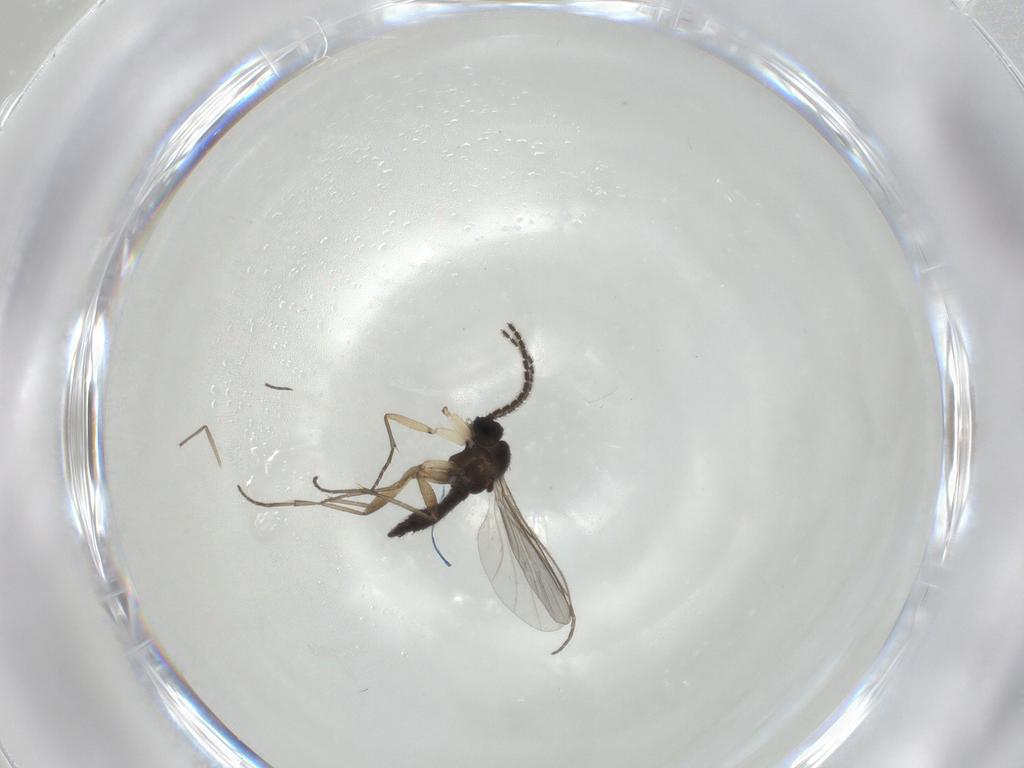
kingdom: Animalia
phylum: Arthropoda
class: Insecta
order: Diptera
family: Sciaridae
